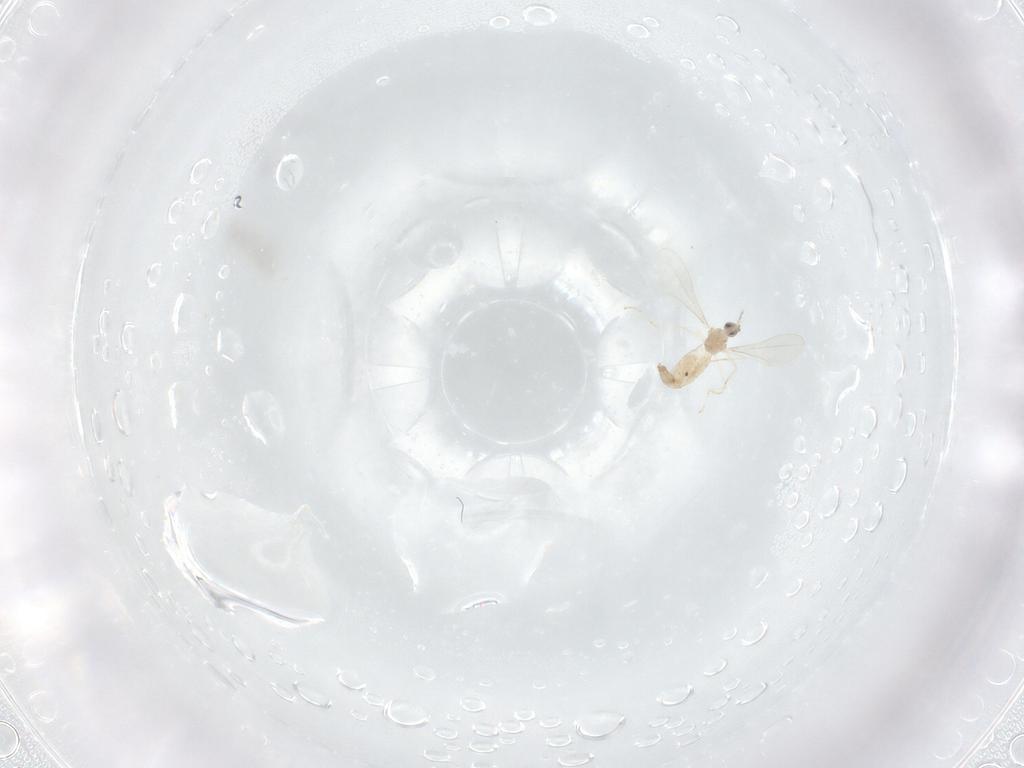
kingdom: Animalia
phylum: Arthropoda
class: Insecta
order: Diptera
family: Cecidomyiidae
